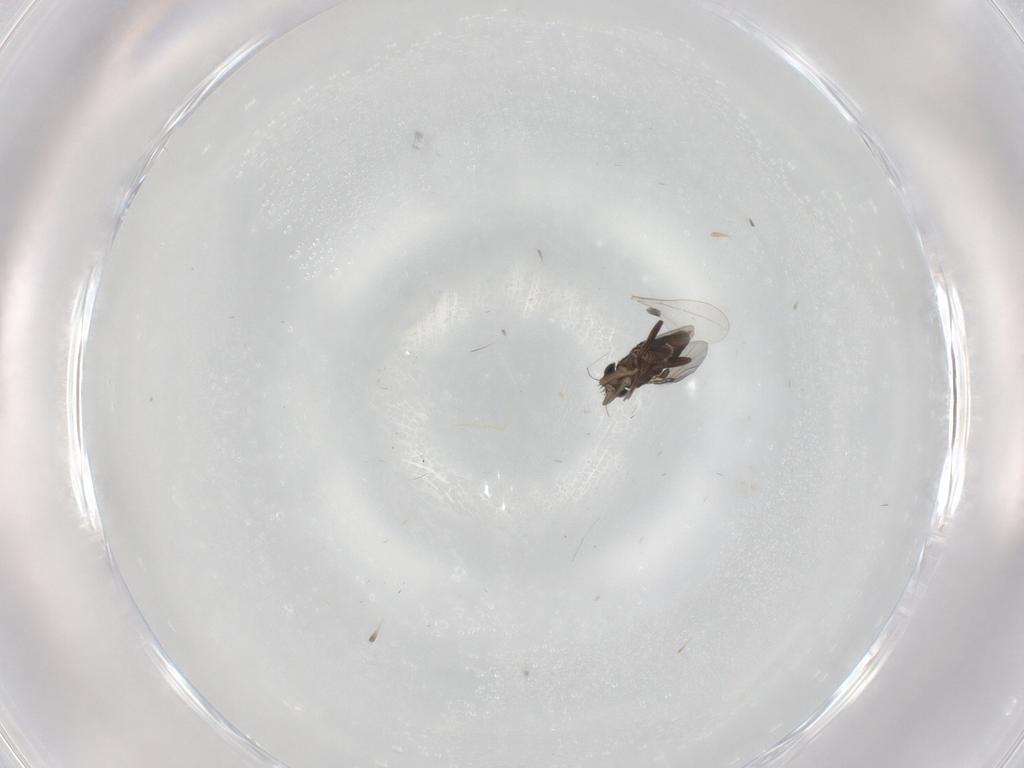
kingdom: Animalia
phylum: Arthropoda
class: Insecta
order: Diptera
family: Phoridae
